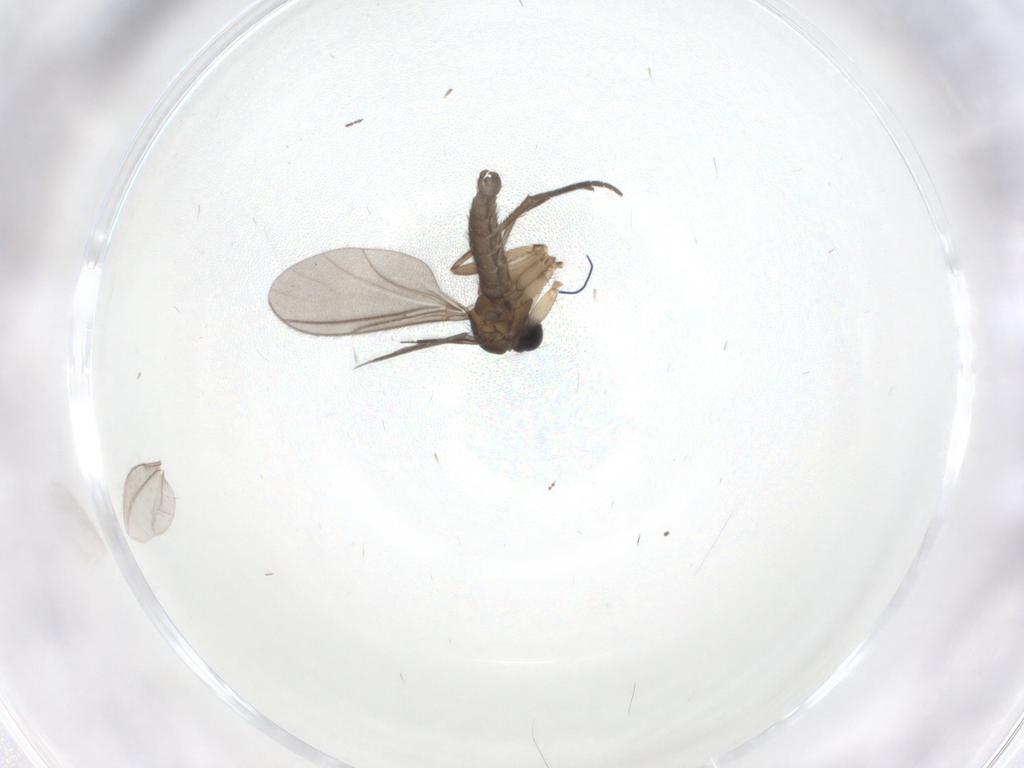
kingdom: Animalia
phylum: Arthropoda
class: Insecta
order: Diptera
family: Sciaridae
